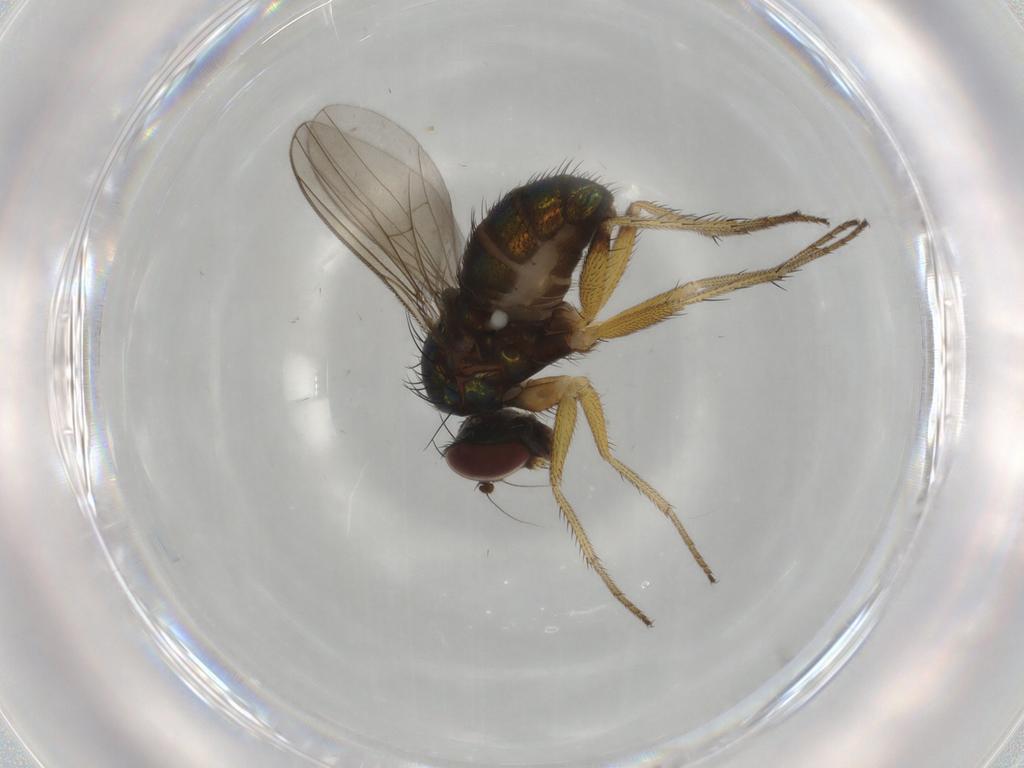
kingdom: Animalia
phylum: Arthropoda
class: Insecta
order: Diptera
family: Dolichopodidae
